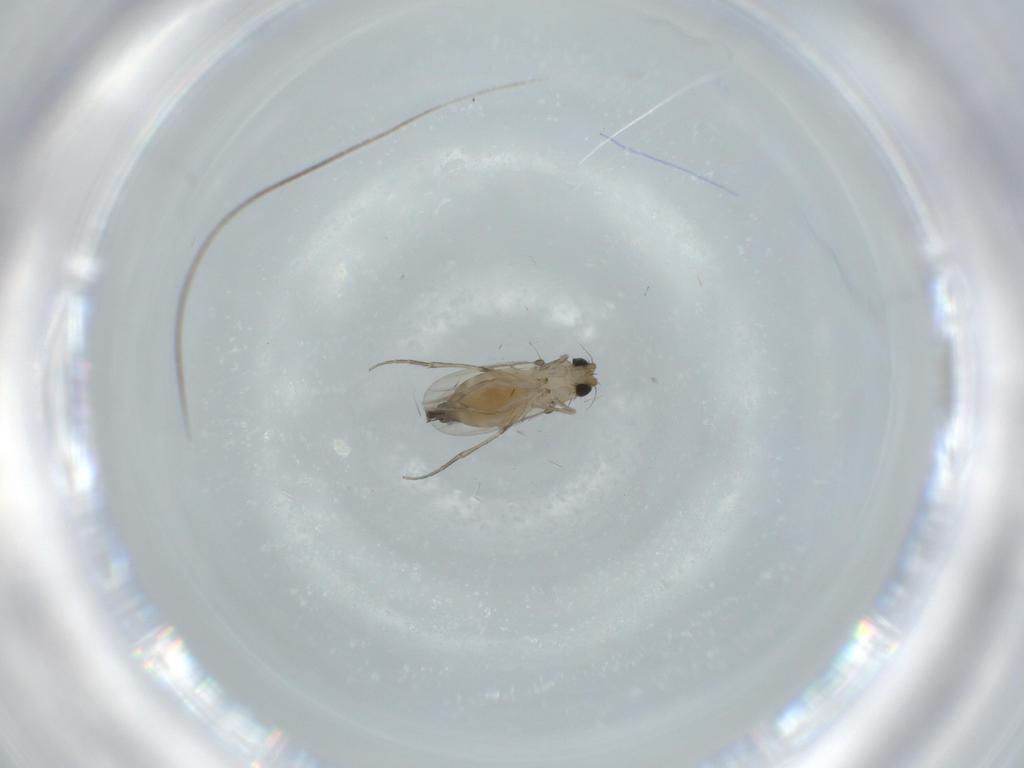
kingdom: Animalia
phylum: Arthropoda
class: Insecta
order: Diptera
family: Phoridae
